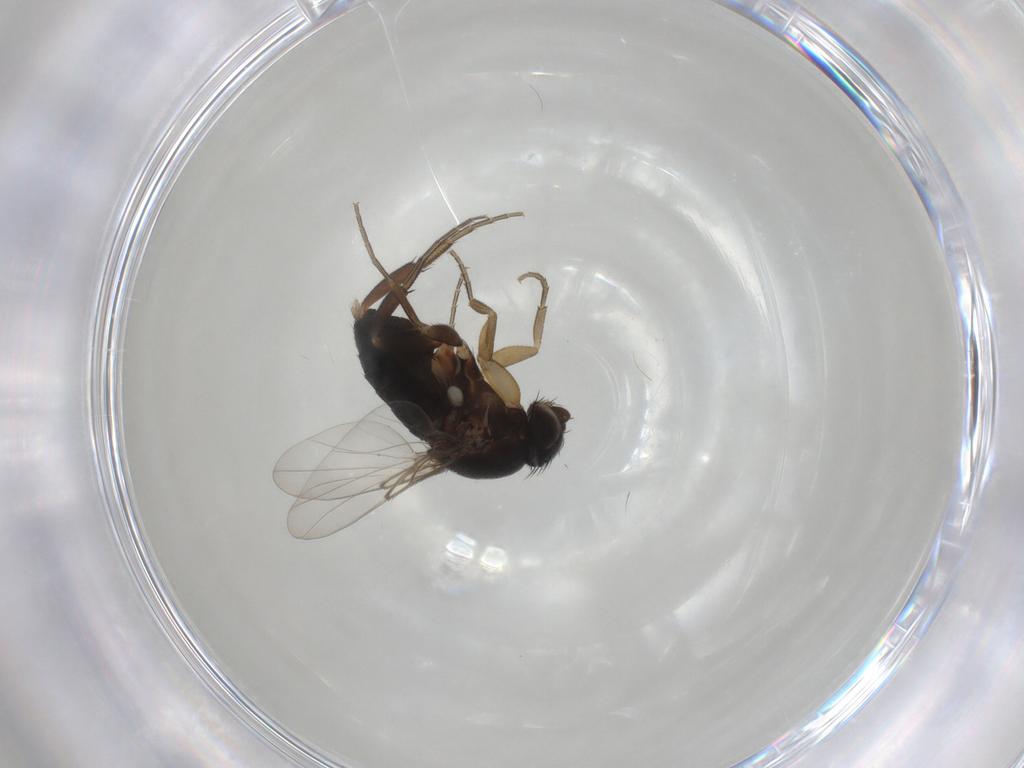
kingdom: Animalia
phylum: Arthropoda
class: Insecta
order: Diptera
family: Phoridae
